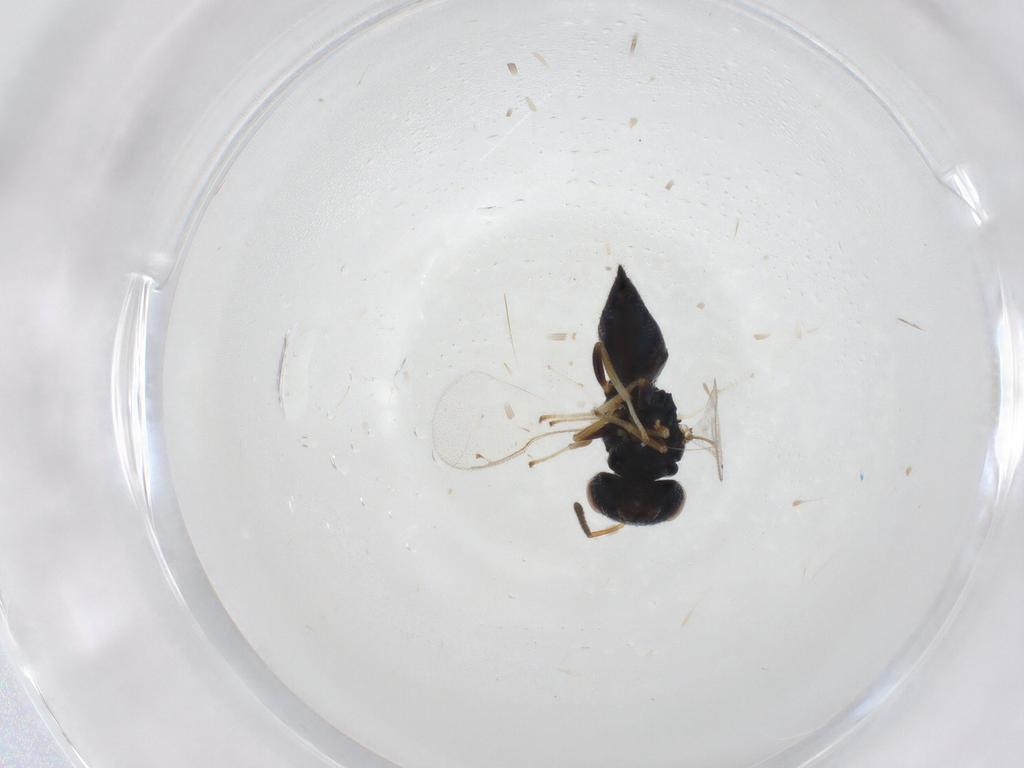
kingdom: Animalia
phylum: Arthropoda
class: Insecta
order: Hymenoptera
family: Pteromalidae
